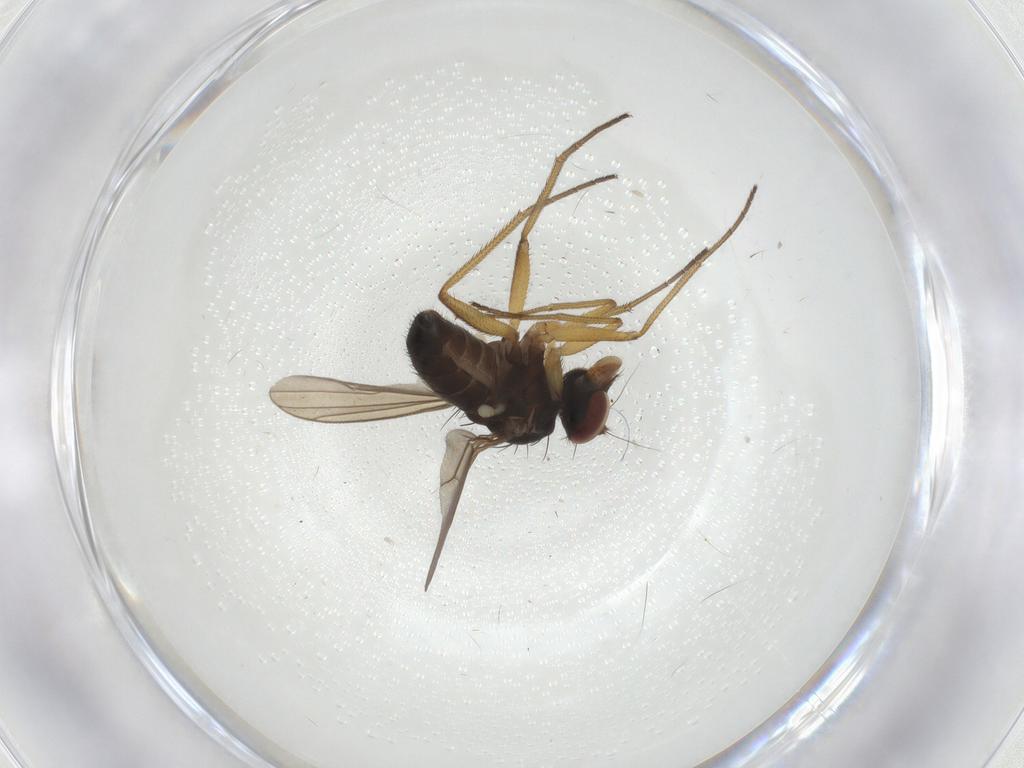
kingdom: Animalia
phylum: Arthropoda
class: Insecta
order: Diptera
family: Dolichopodidae
